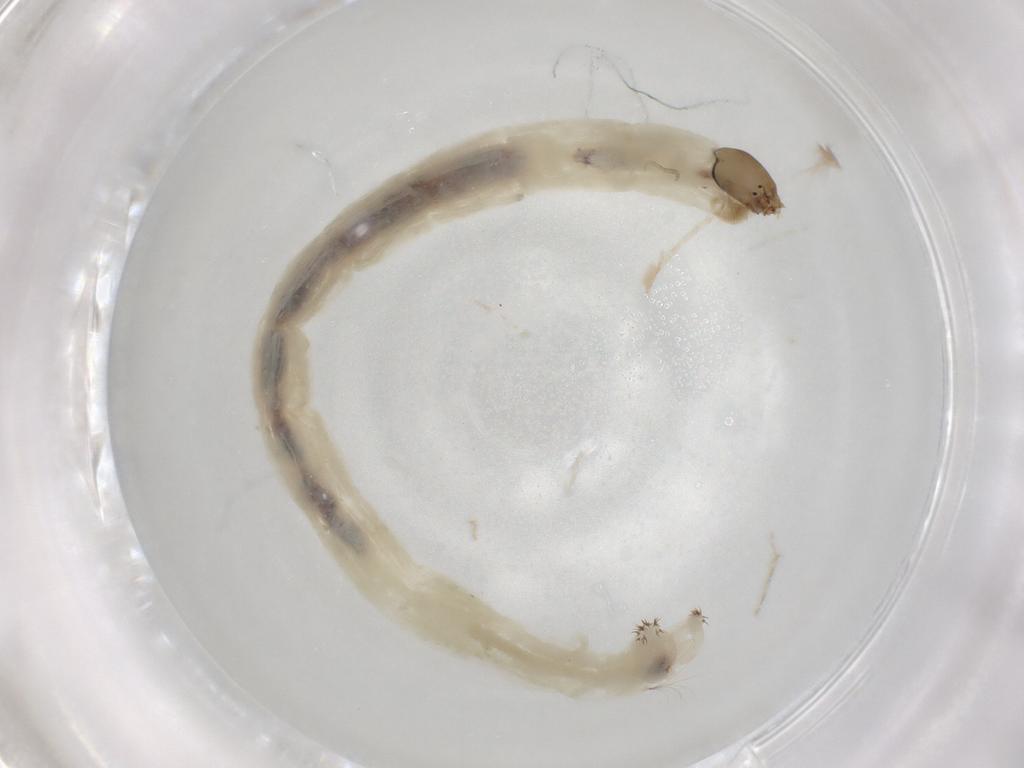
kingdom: Animalia
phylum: Arthropoda
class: Insecta
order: Diptera
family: Chironomidae
